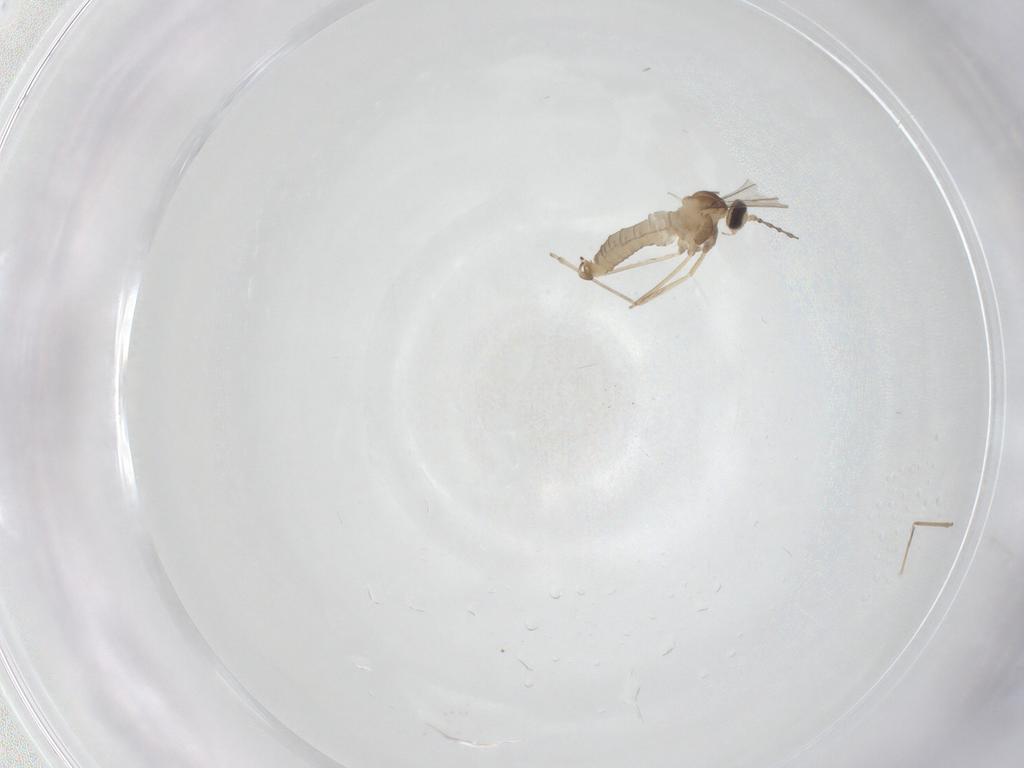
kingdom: Animalia
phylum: Arthropoda
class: Insecta
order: Diptera
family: Cecidomyiidae
